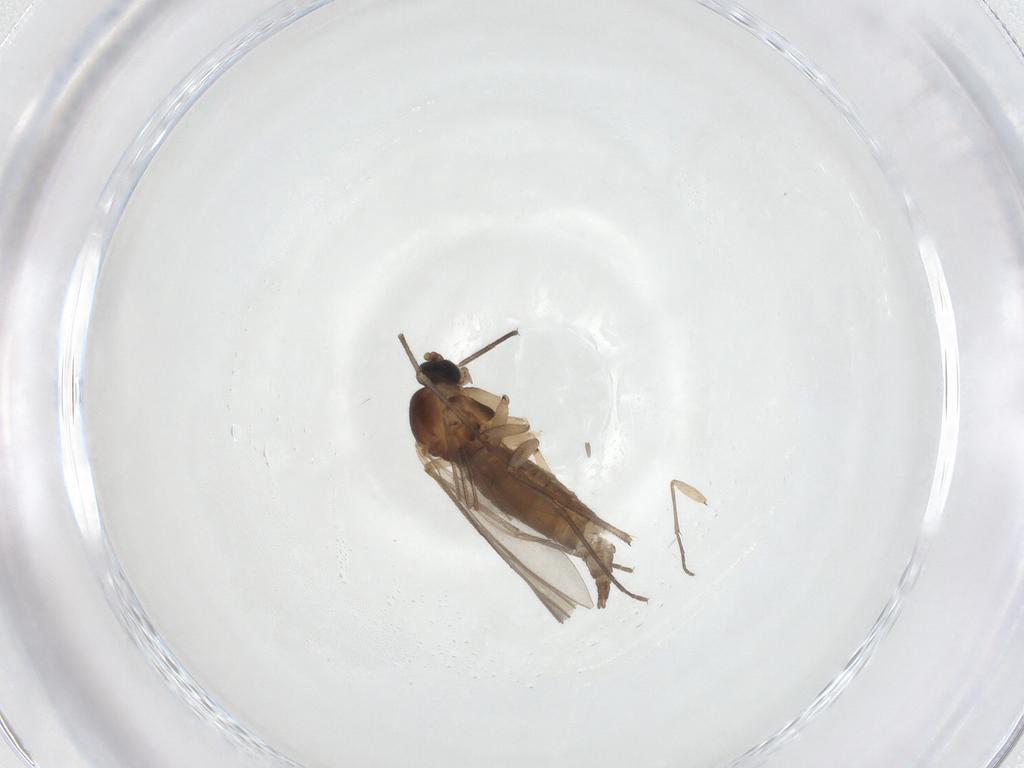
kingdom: Animalia
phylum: Arthropoda
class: Insecta
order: Diptera
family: Sciaridae
